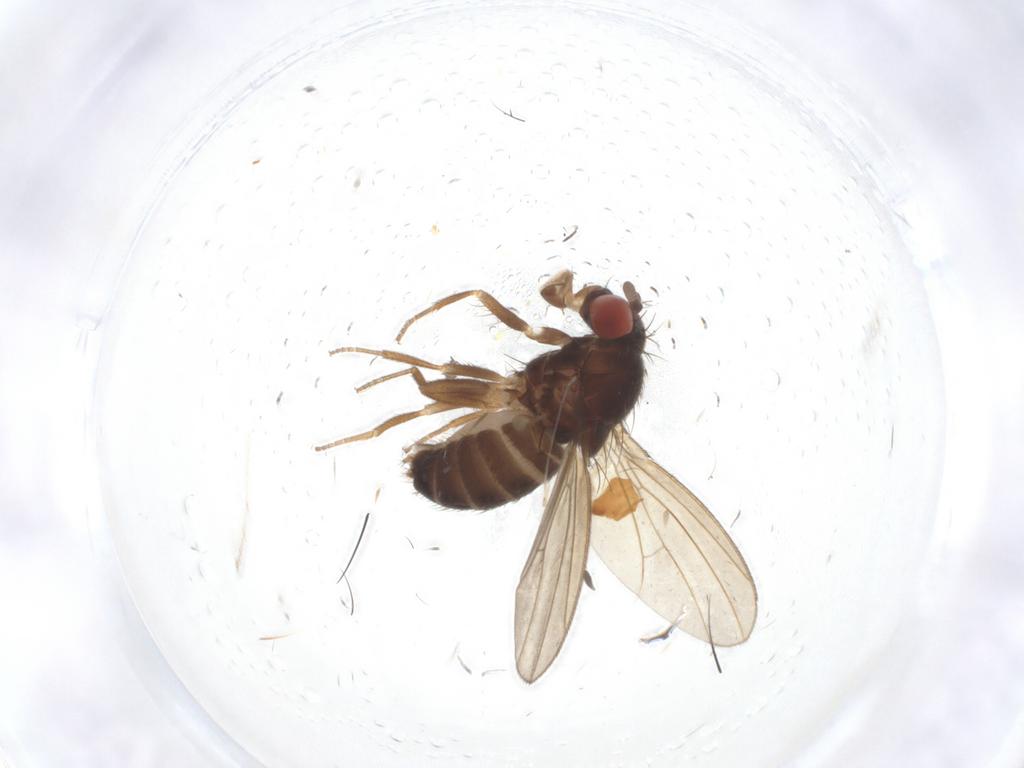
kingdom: Animalia
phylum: Arthropoda
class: Insecta
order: Diptera
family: Drosophilidae
